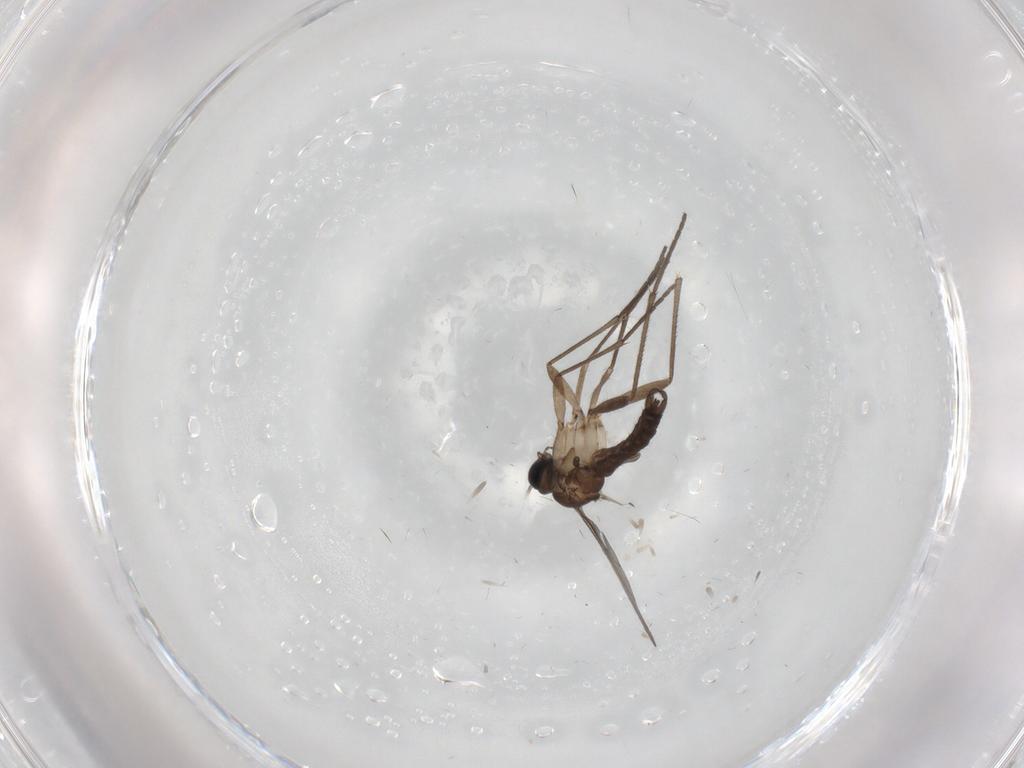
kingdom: Animalia
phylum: Arthropoda
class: Insecta
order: Diptera
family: Sciaridae
